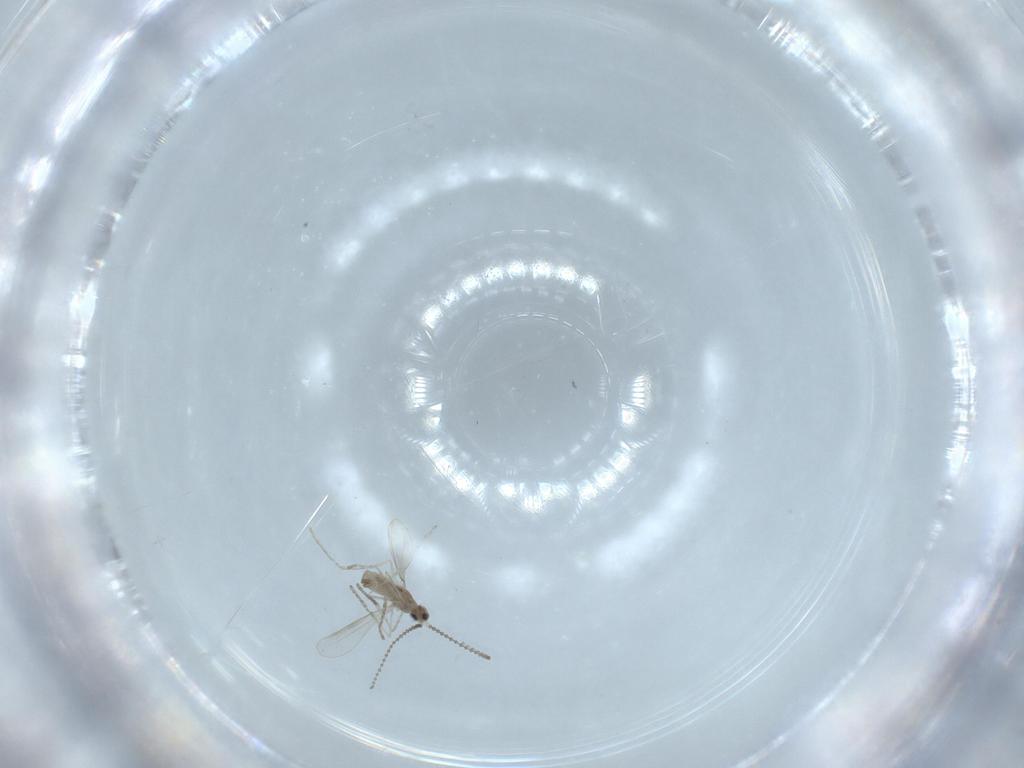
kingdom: Animalia
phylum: Arthropoda
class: Insecta
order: Diptera
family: Cecidomyiidae
